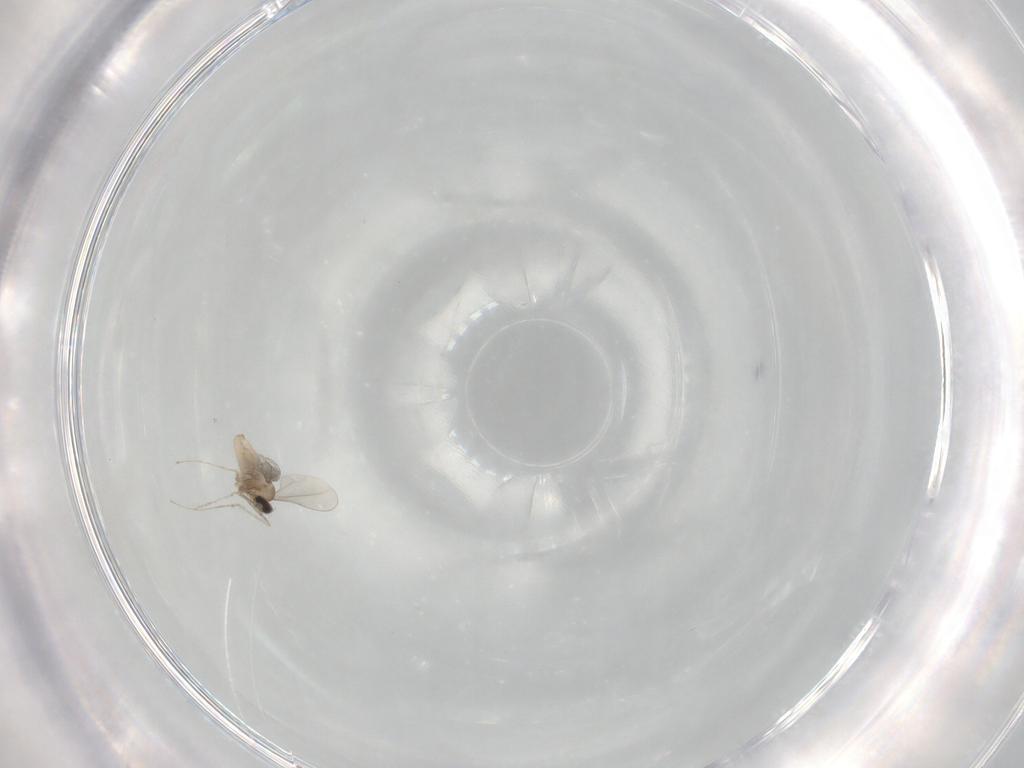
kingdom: Animalia
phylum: Arthropoda
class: Insecta
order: Diptera
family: Cecidomyiidae
